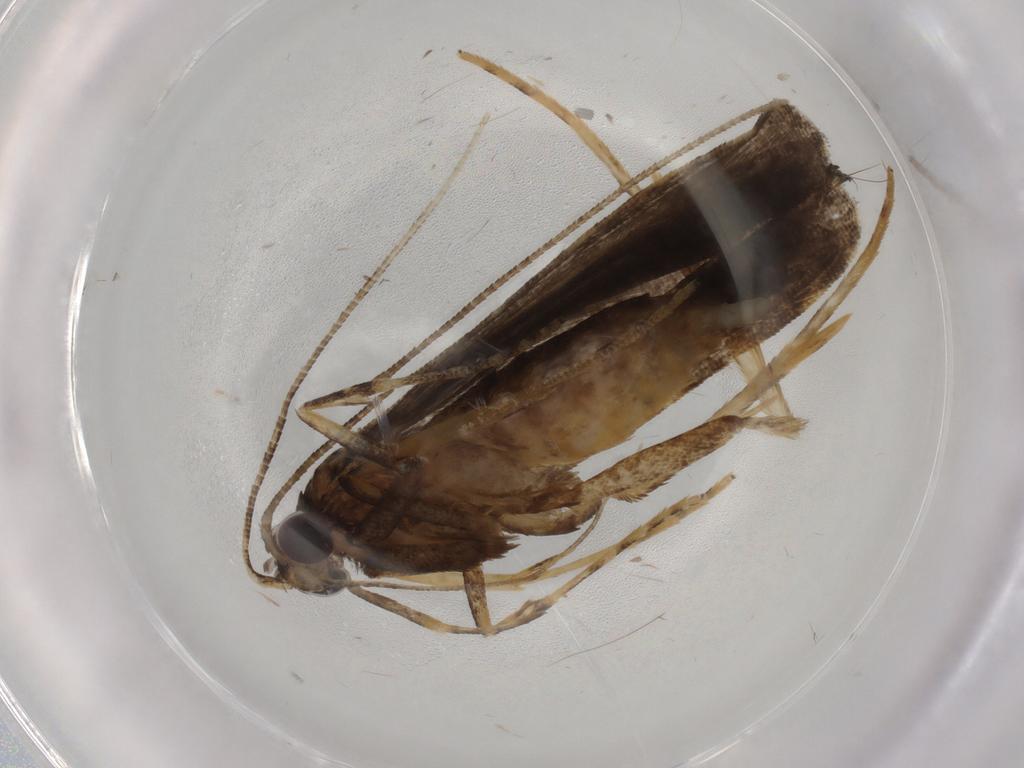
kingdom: Animalia
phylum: Arthropoda
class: Insecta
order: Lepidoptera
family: Cosmopterigidae
